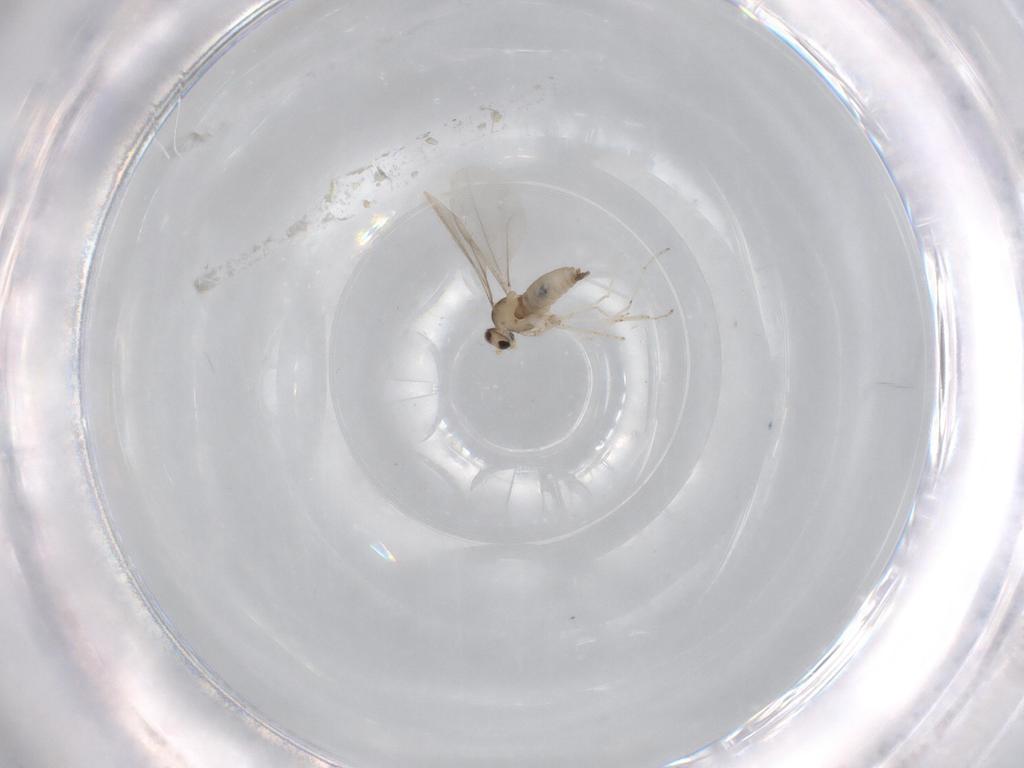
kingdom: Animalia
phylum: Arthropoda
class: Insecta
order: Diptera
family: Cecidomyiidae
